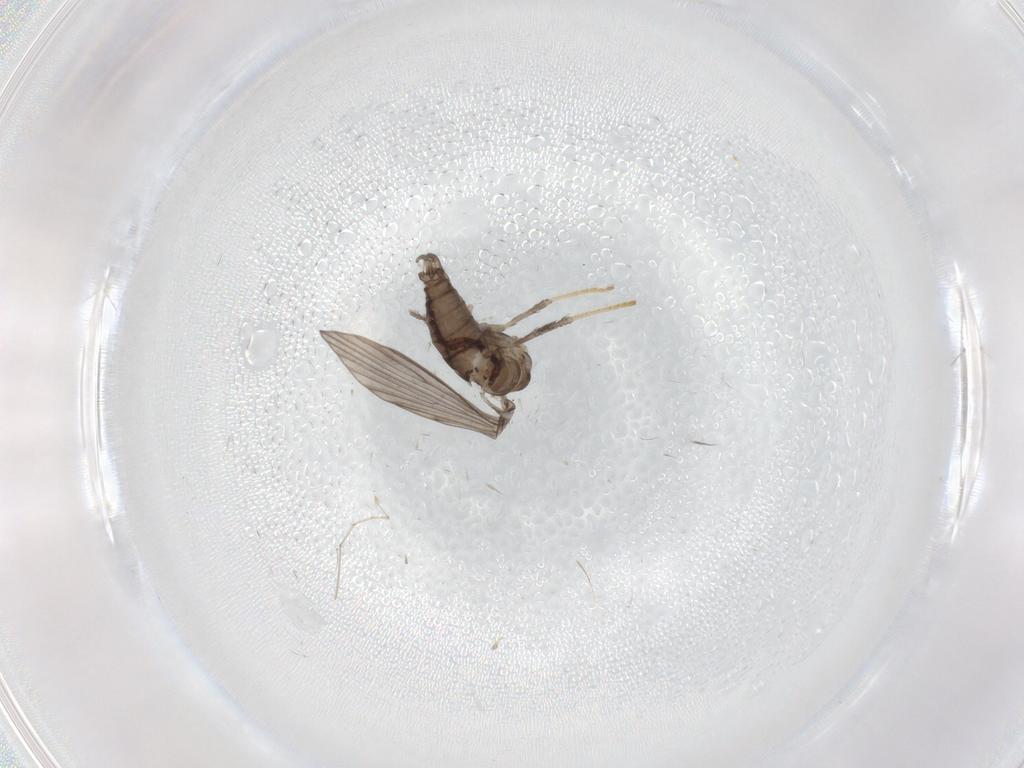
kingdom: Animalia
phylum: Arthropoda
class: Insecta
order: Diptera
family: Psychodidae
